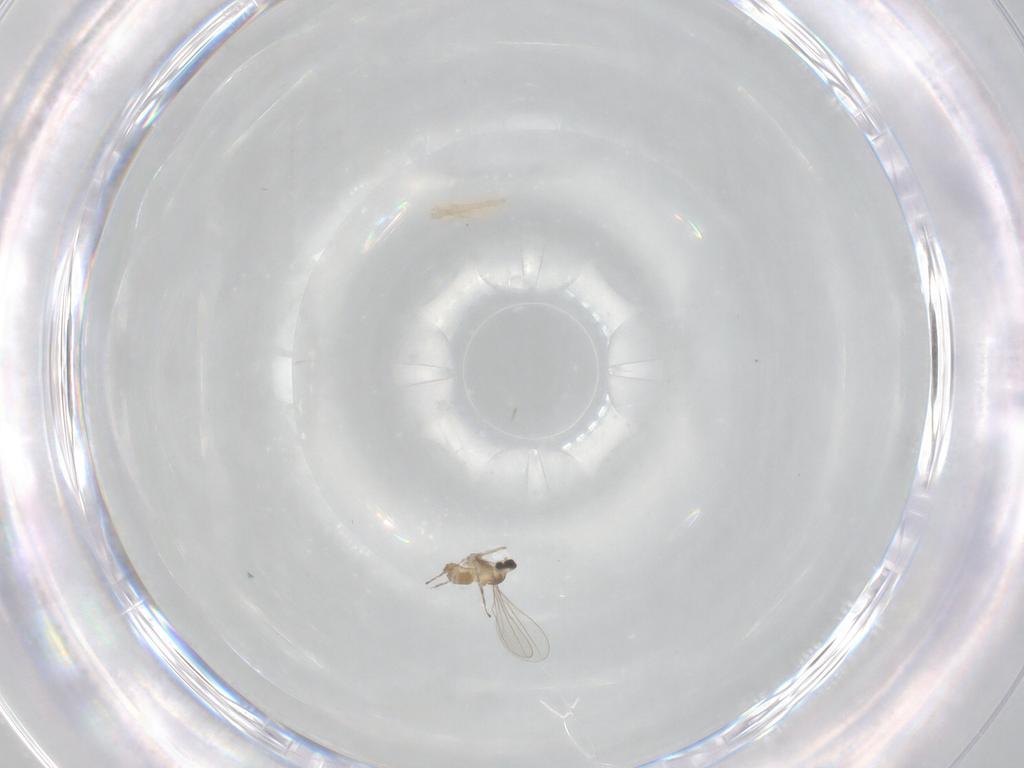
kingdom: Animalia
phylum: Arthropoda
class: Insecta
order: Diptera
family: Cecidomyiidae
